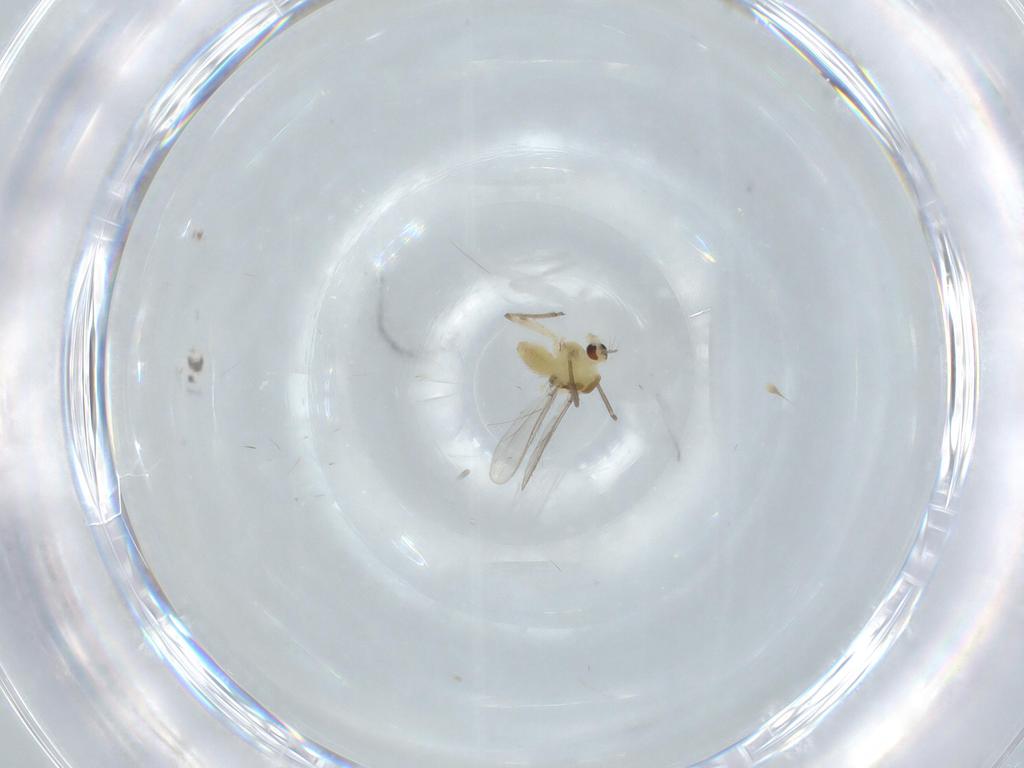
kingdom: Animalia
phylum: Arthropoda
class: Insecta
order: Diptera
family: Chironomidae
